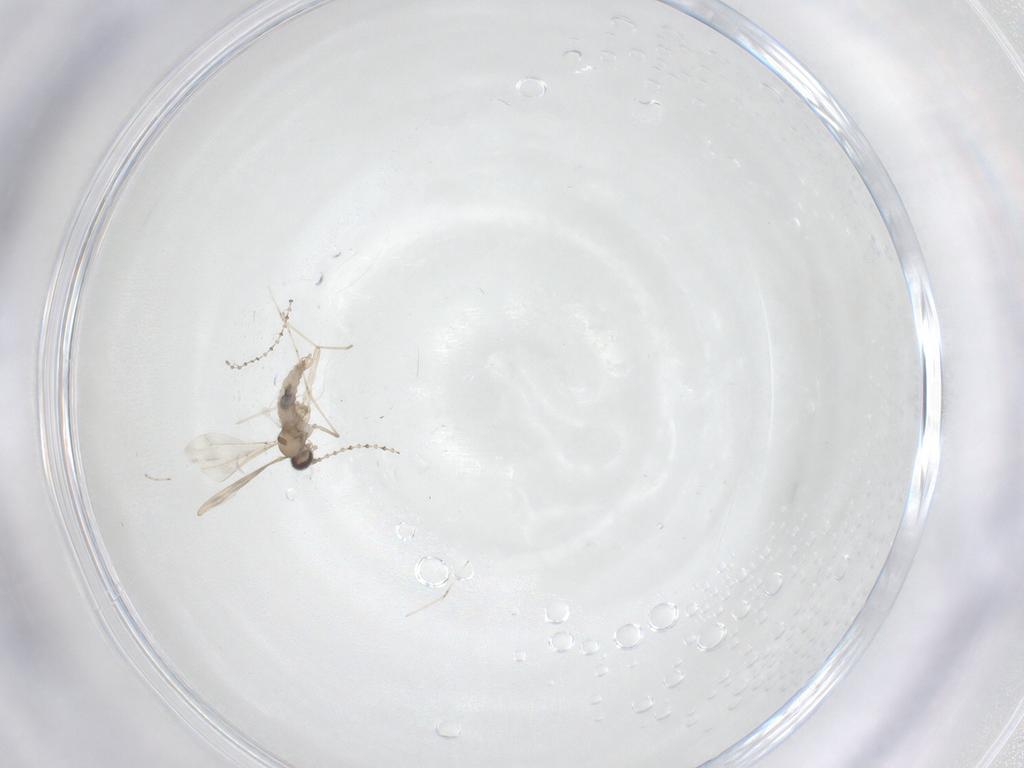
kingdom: Animalia
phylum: Arthropoda
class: Insecta
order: Diptera
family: Cecidomyiidae
